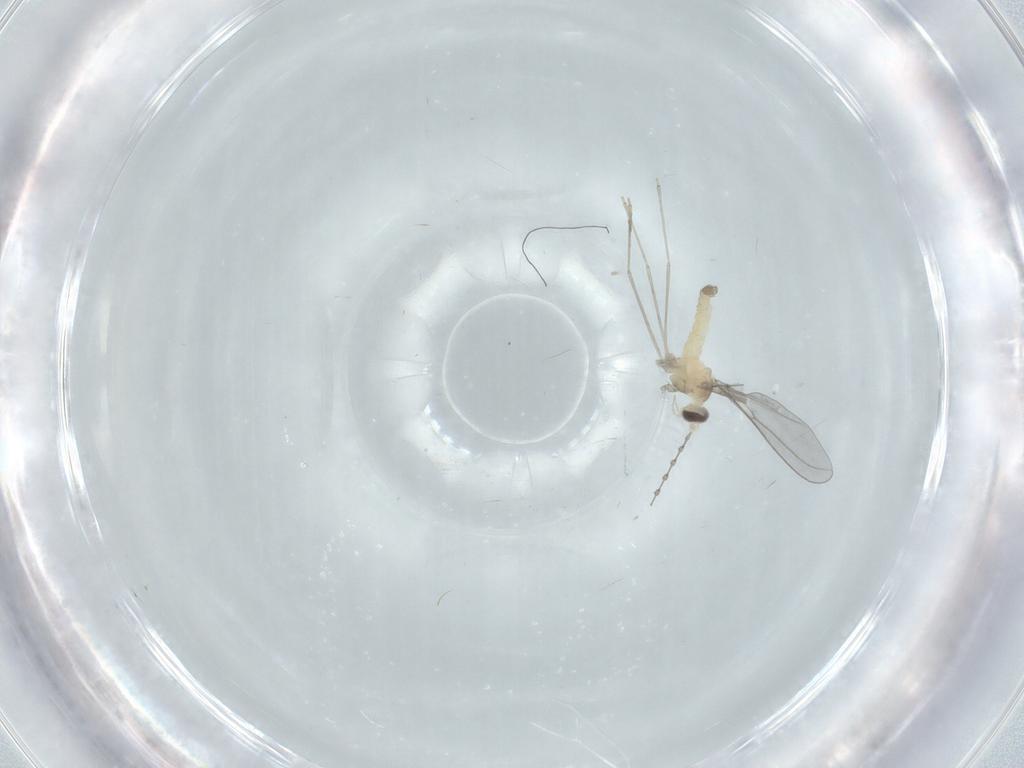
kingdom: Animalia
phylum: Arthropoda
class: Insecta
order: Diptera
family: Cecidomyiidae
